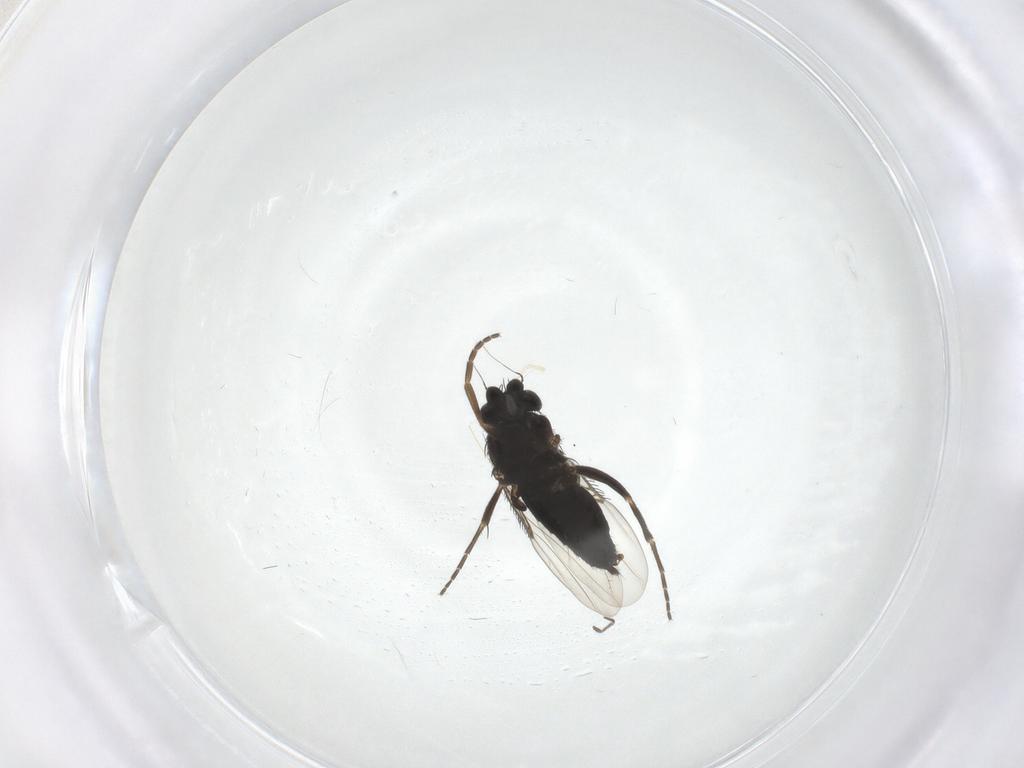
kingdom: Animalia
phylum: Arthropoda
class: Insecta
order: Diptera
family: Phoridae
